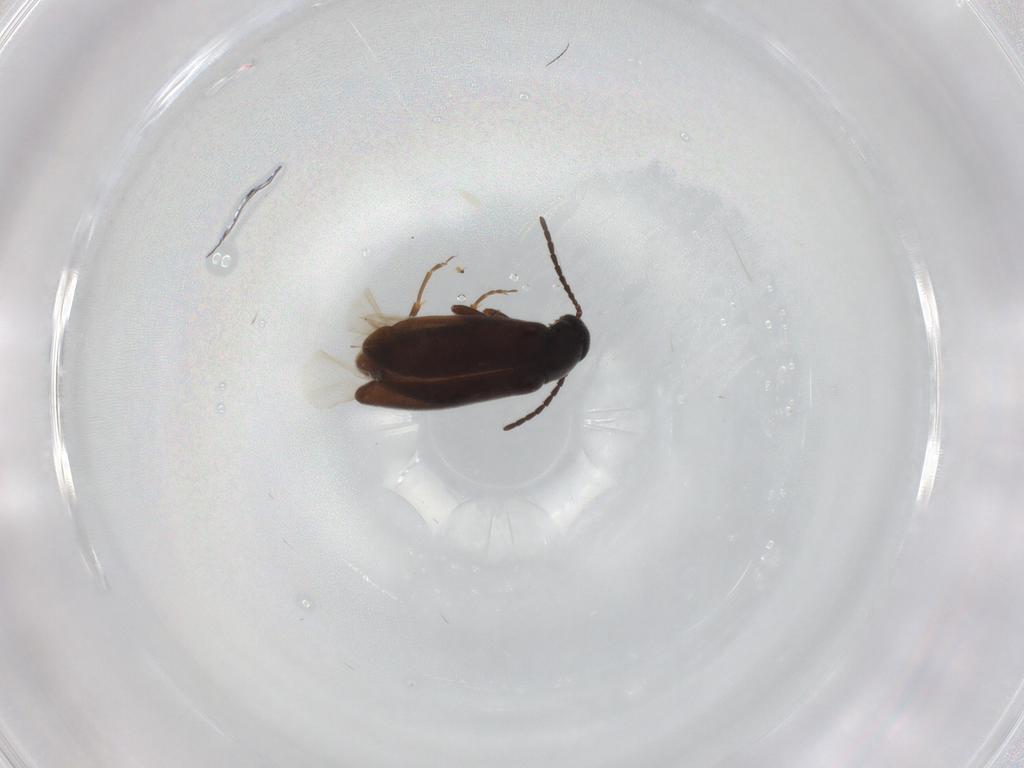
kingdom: Animalia
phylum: Arthropoda
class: Insecta
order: Coleoptera
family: Scraptiidae
